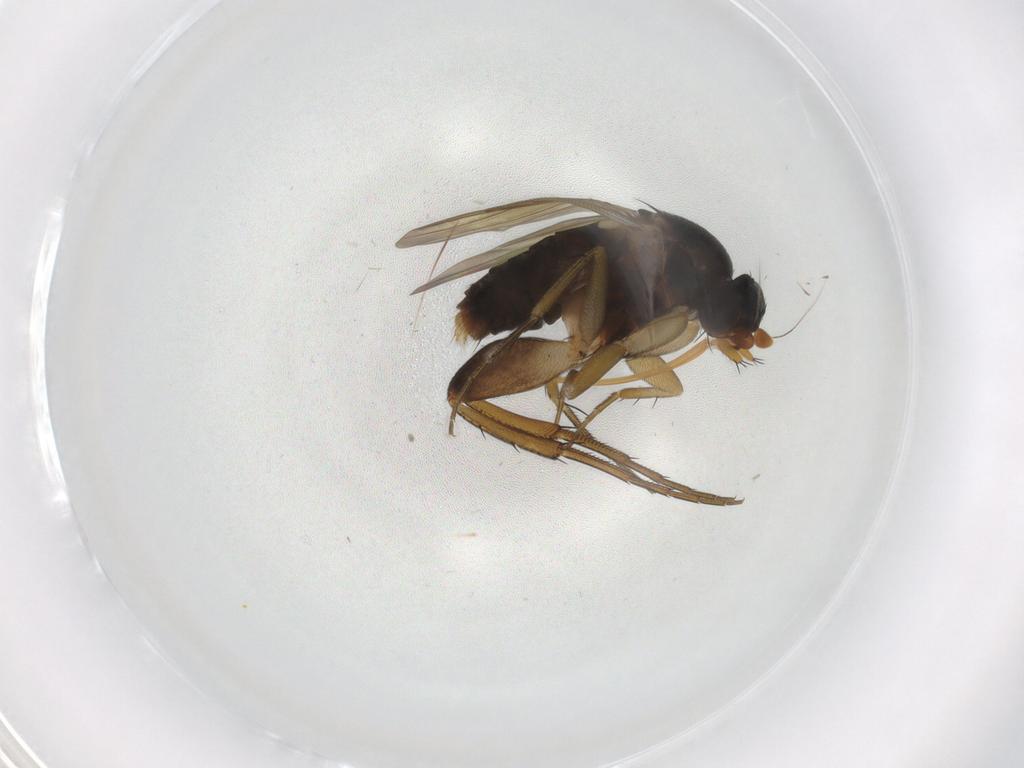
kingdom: Animalia
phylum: Arthropoda
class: Insecta
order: Diptera
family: Phoridae
